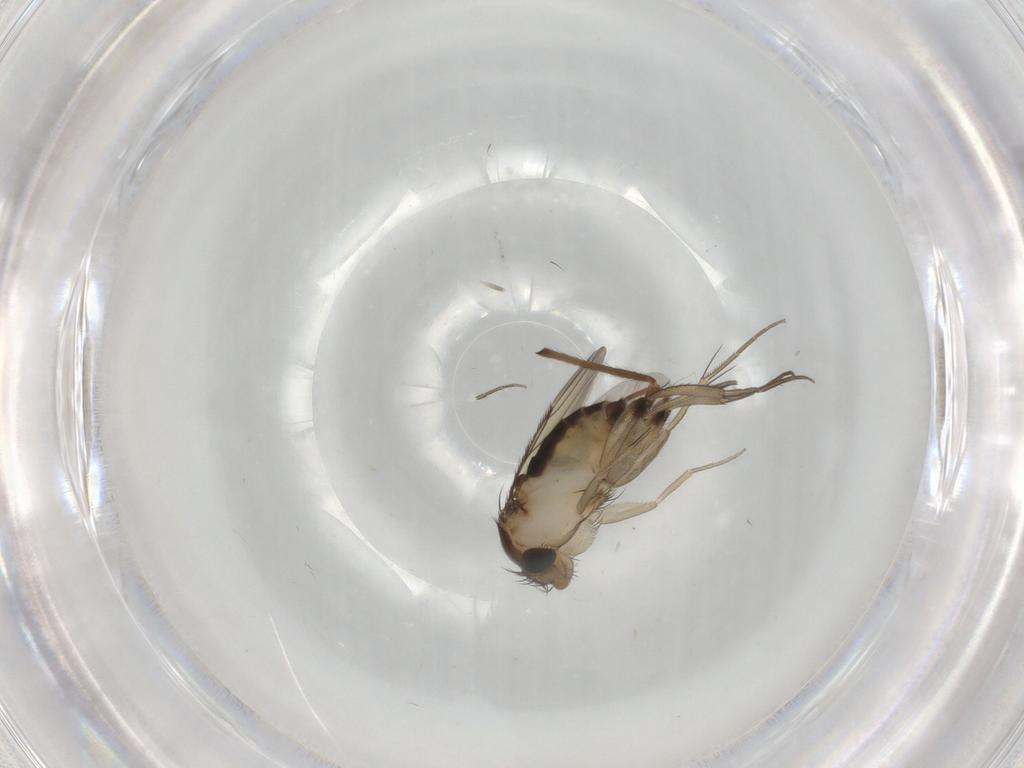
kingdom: Animalia
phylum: Arthropoda
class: Insecta
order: Diptera
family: Phoridae
